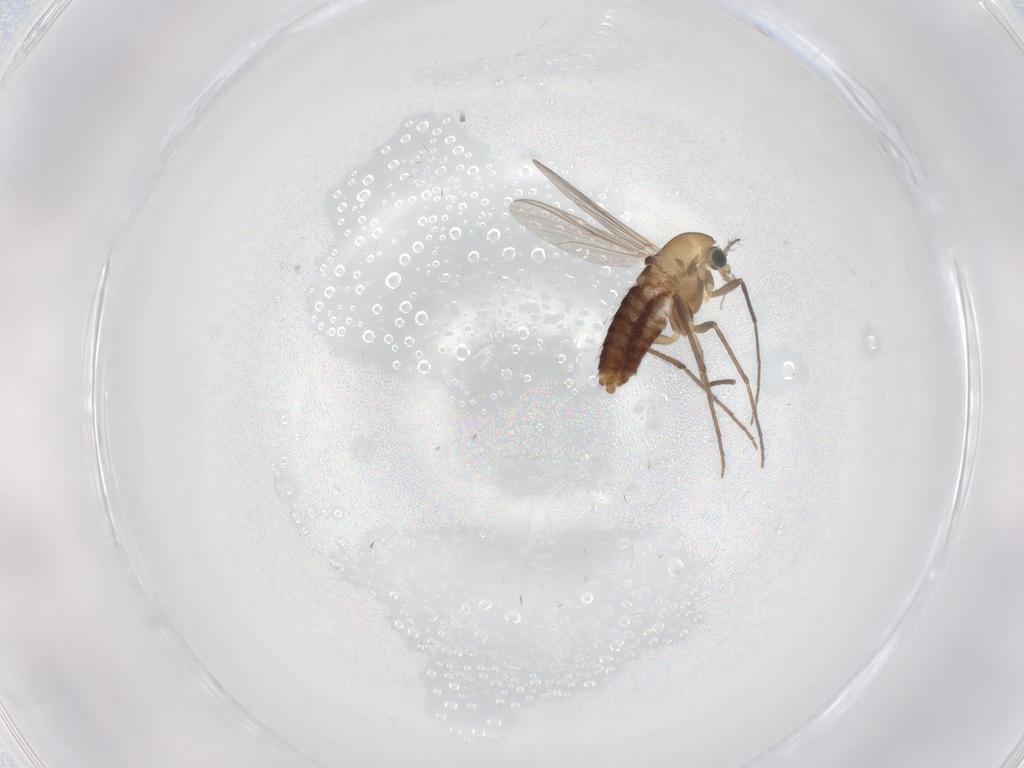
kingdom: Animalia
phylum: Arthropoda
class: Insecta
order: Diptera
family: Chironomidae
